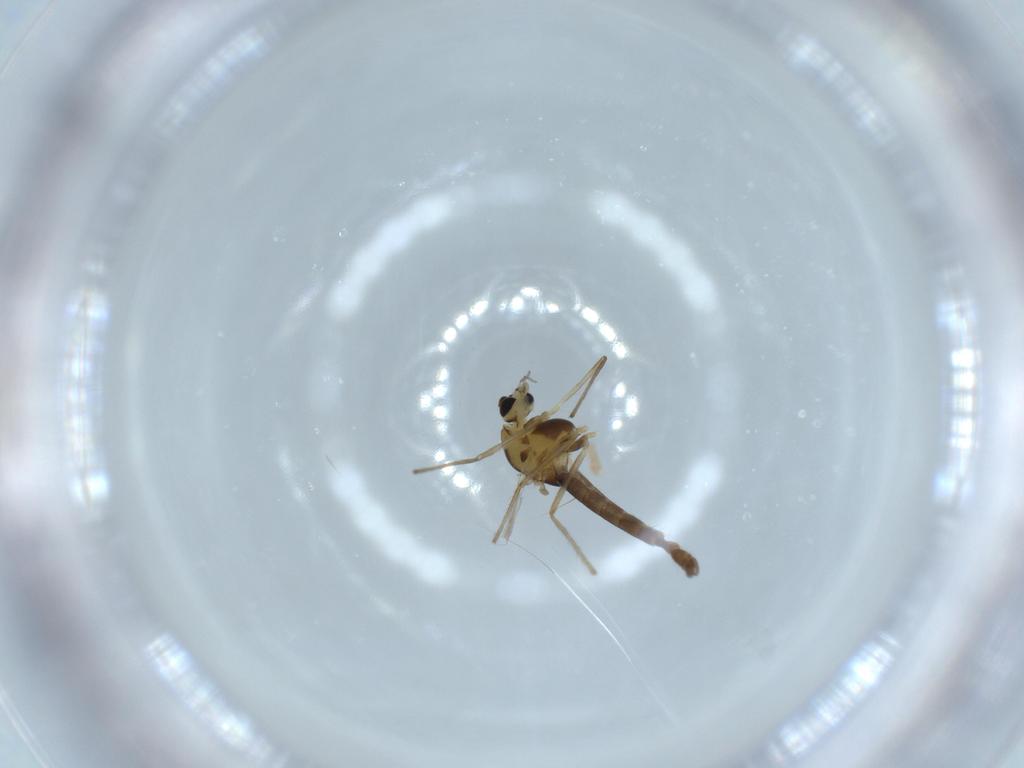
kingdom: Animalia
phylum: Arthropoda
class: Insecta
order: Diptera
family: Chironomidae
